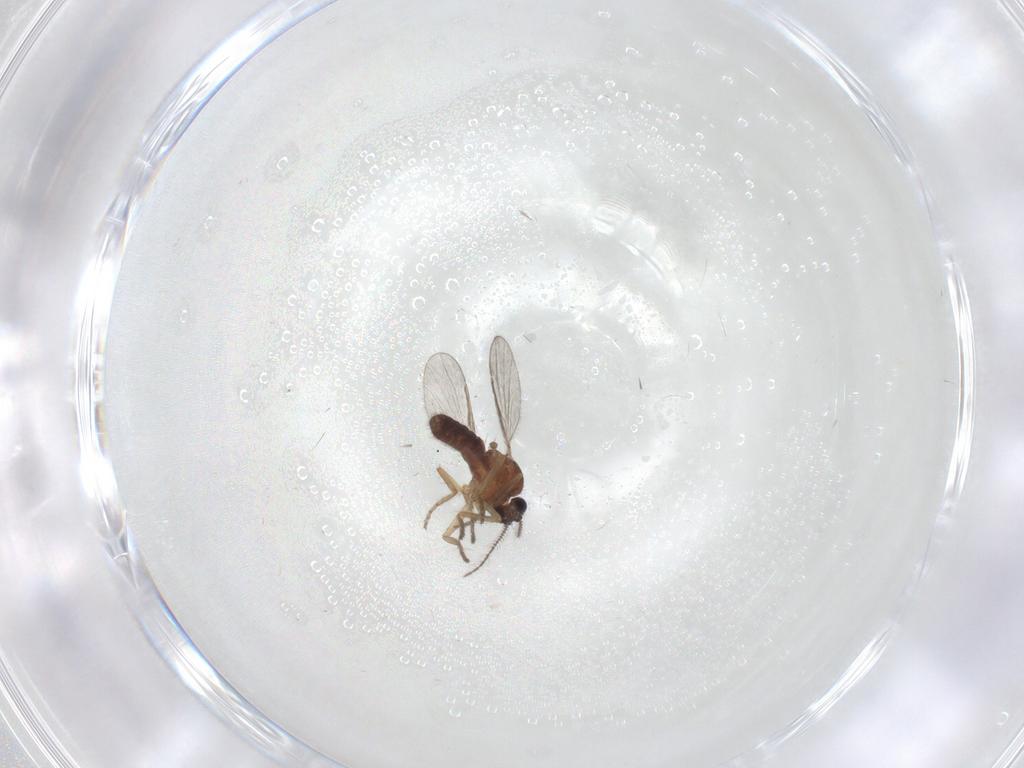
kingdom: Animalia
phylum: Arthropoda
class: Insecta
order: Diptera
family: Ceratopogonidae
